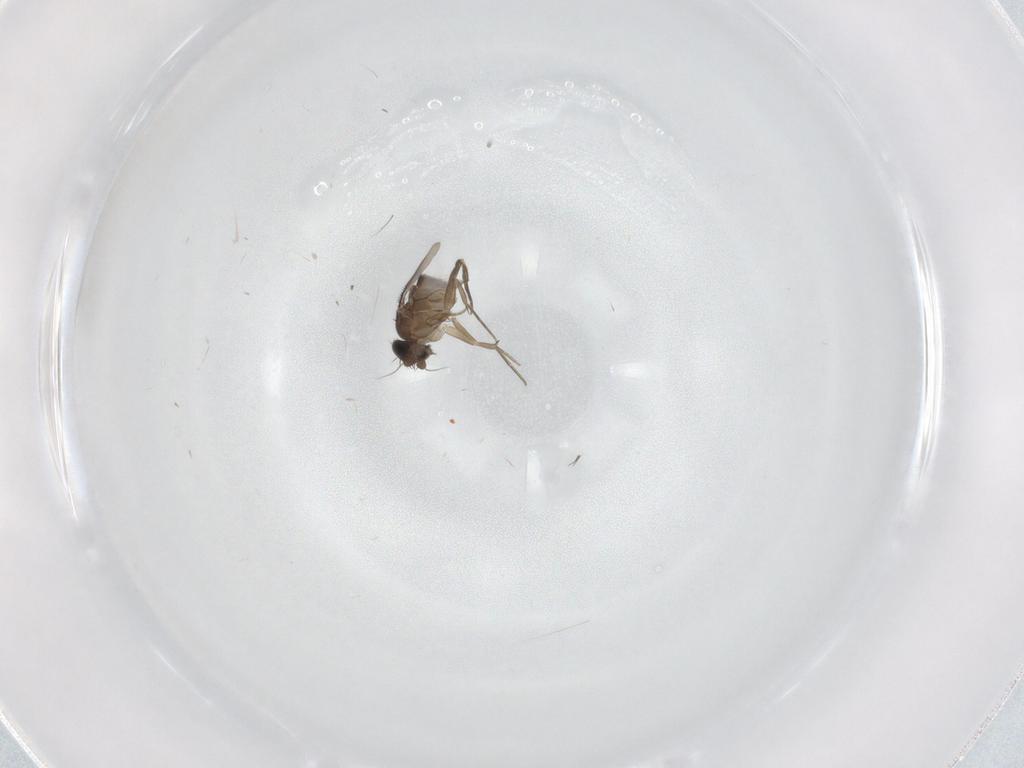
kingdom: Animalia
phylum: Arthropoda
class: Insecta
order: Diptera
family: Phoridae
